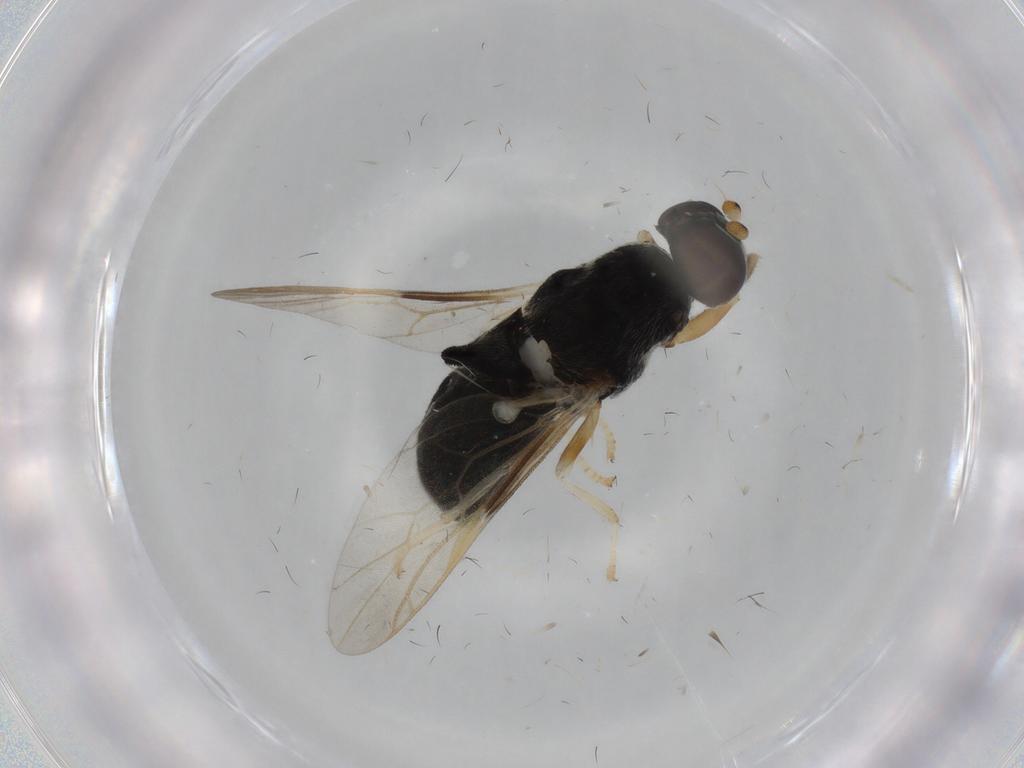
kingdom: Animalia
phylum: Arthropoda
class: Insecta
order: Diptera
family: Stratiomyidae
